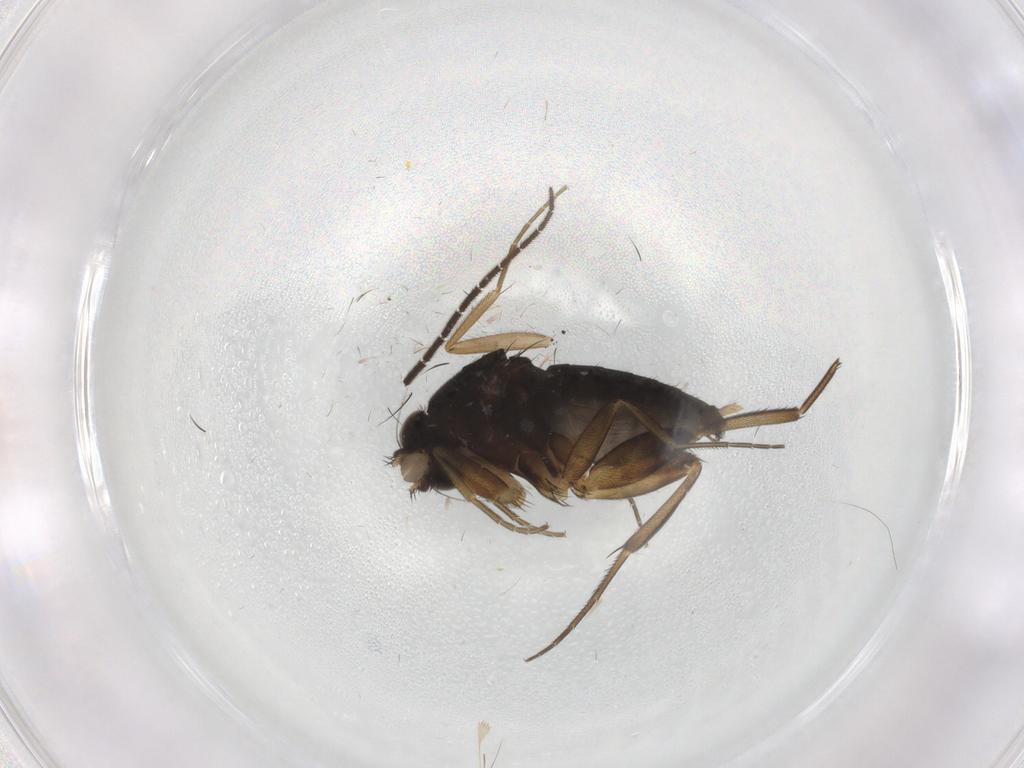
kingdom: Animalia
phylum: Arthropoda
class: Insecta
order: Diptera
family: Phoridae
